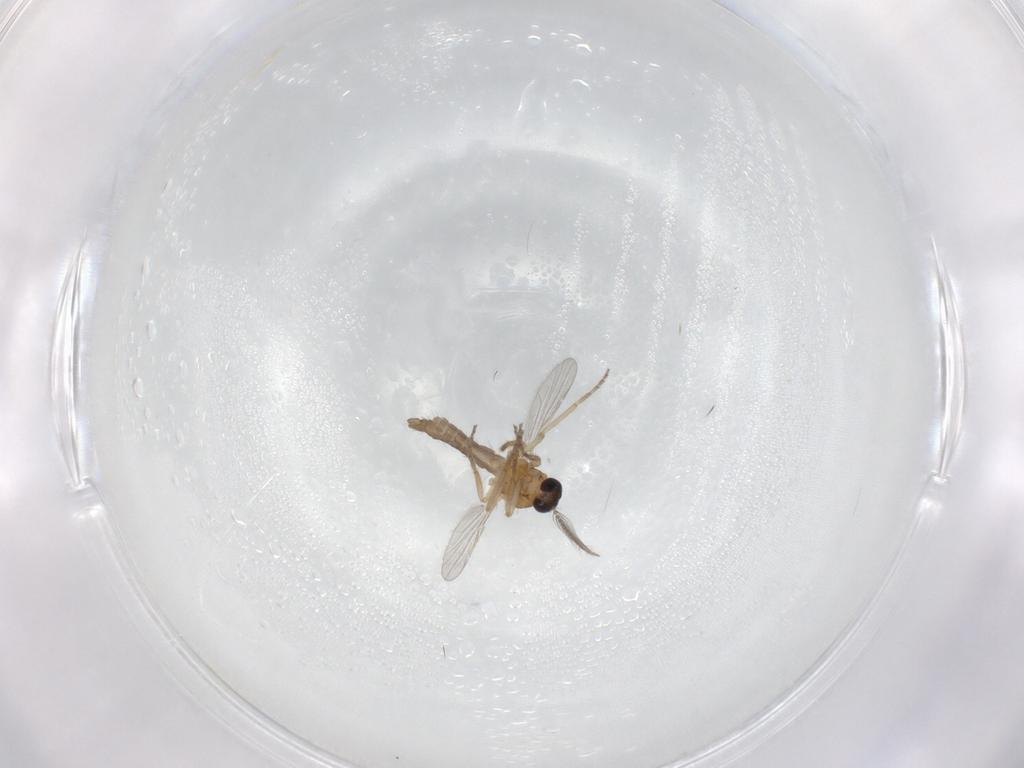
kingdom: Animalia
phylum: Arthropoda
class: Insecta
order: Diptera
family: Ceratopogonidae
